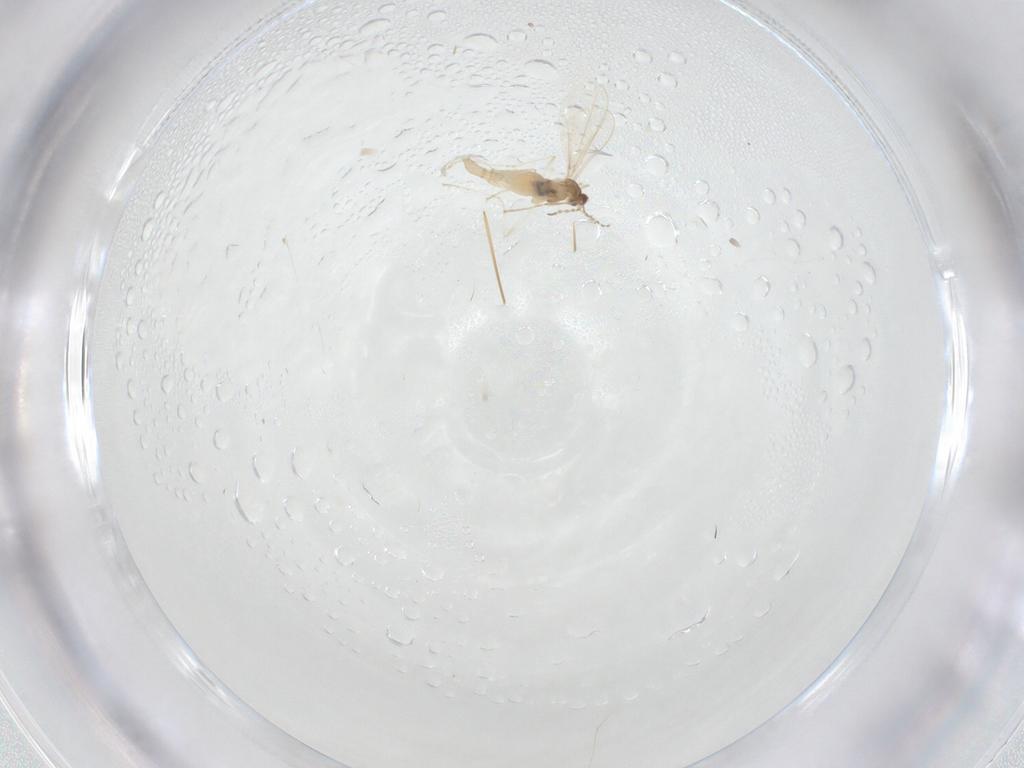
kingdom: Animalia
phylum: Arthropoda
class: Insecta
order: Diptera
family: Cecidomyiidae
